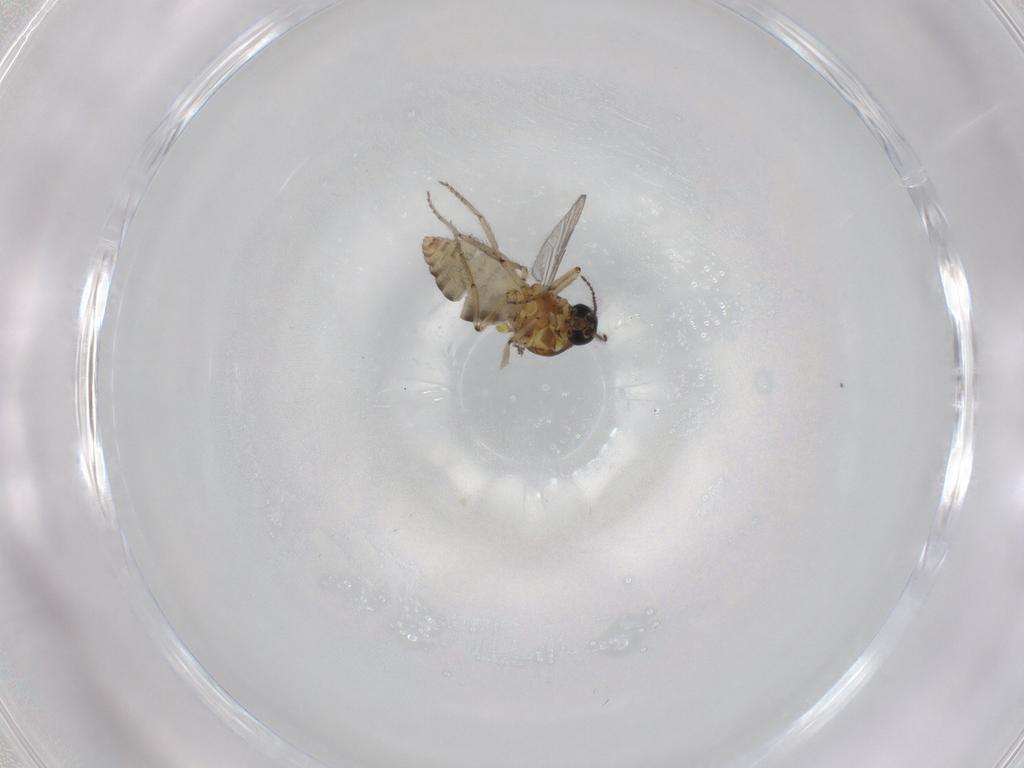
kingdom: Animalia
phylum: Arthropoda
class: Insecta
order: Diptera
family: Ceratopogonidae
